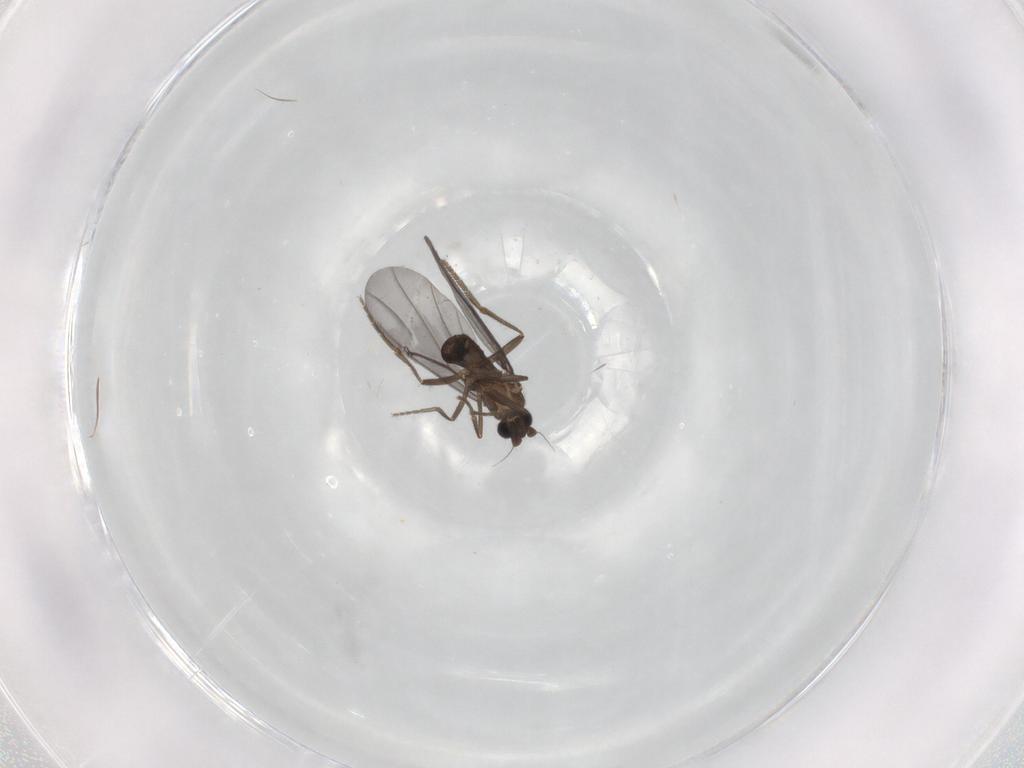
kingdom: Animalia
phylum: Arthropoda
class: Insecta
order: Diptera
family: Phoridae
